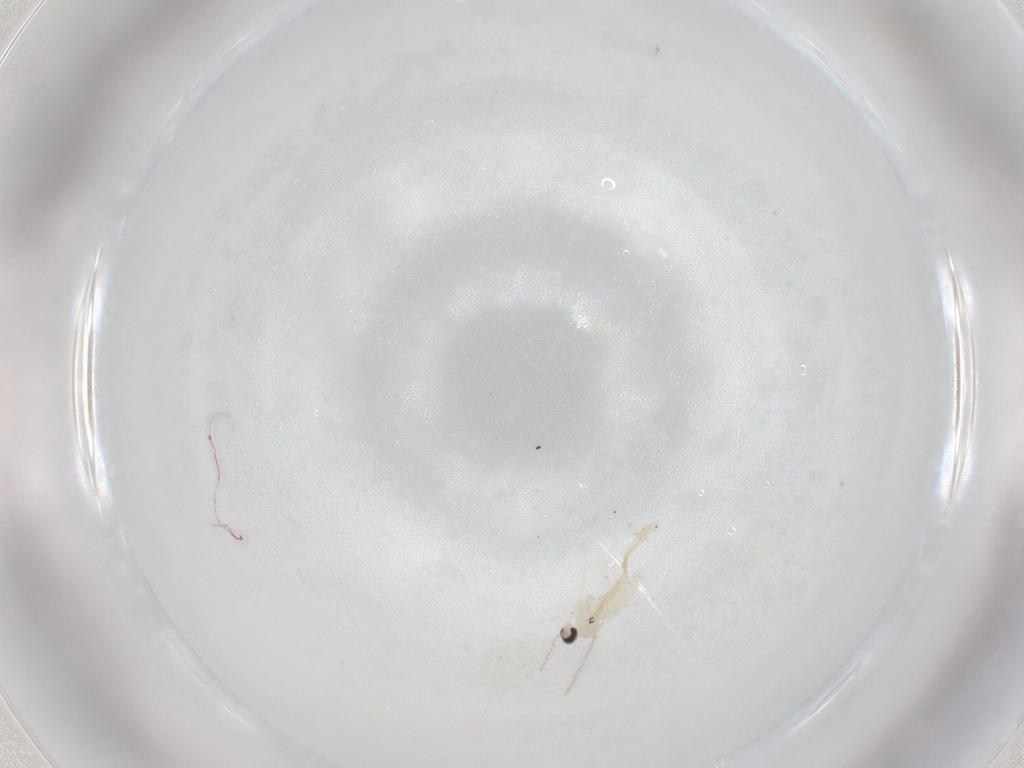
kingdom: Animalia
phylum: Arthropoda
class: Insecta
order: Diptera
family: Cecidomyiidae
